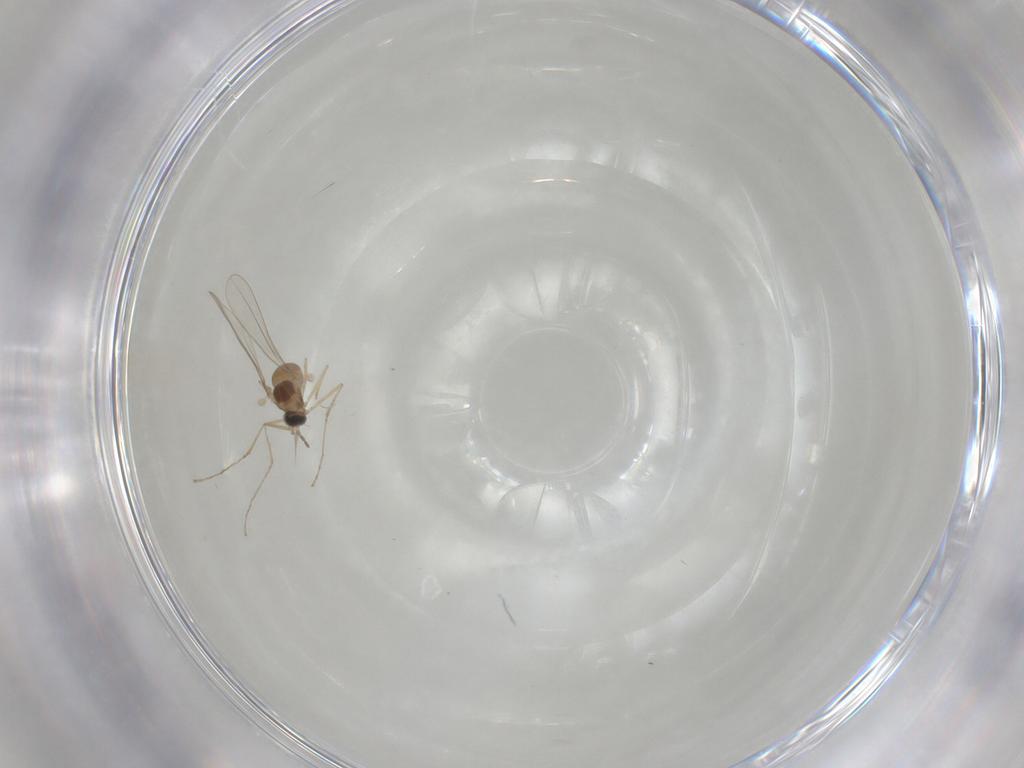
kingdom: Animalia
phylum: Arthropoda
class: Insecta
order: Diptera
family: Cecidomyiidae
